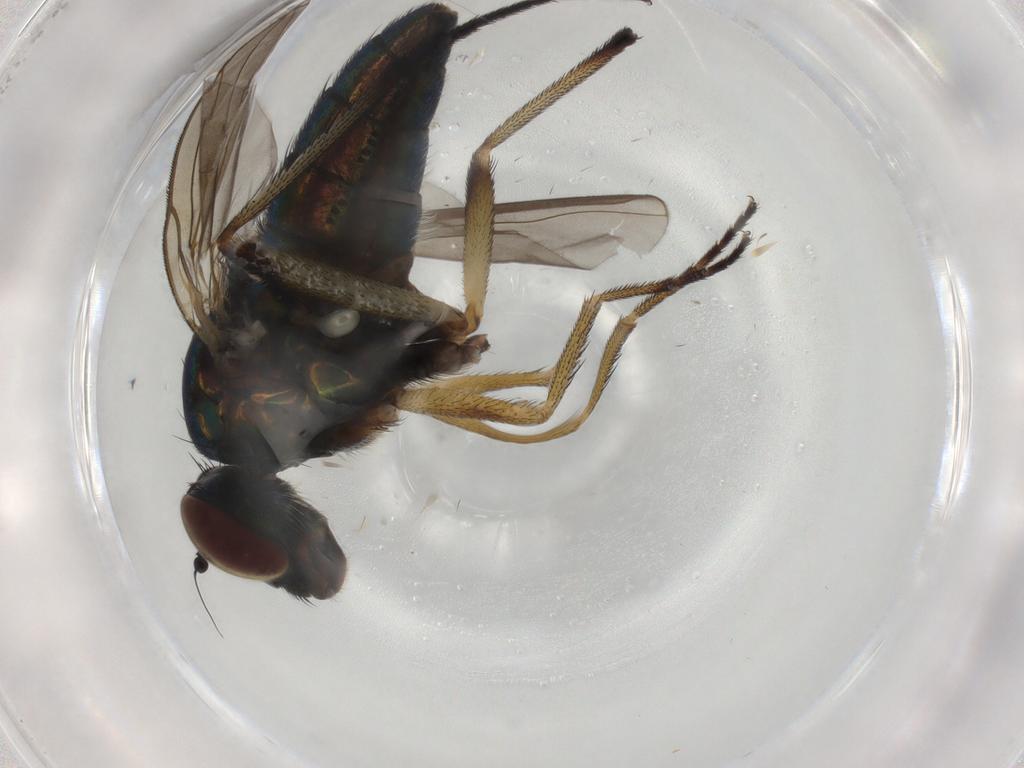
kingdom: Animalia
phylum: Arthropoda
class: Insecta
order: Diptera
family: Dolichopodidae
